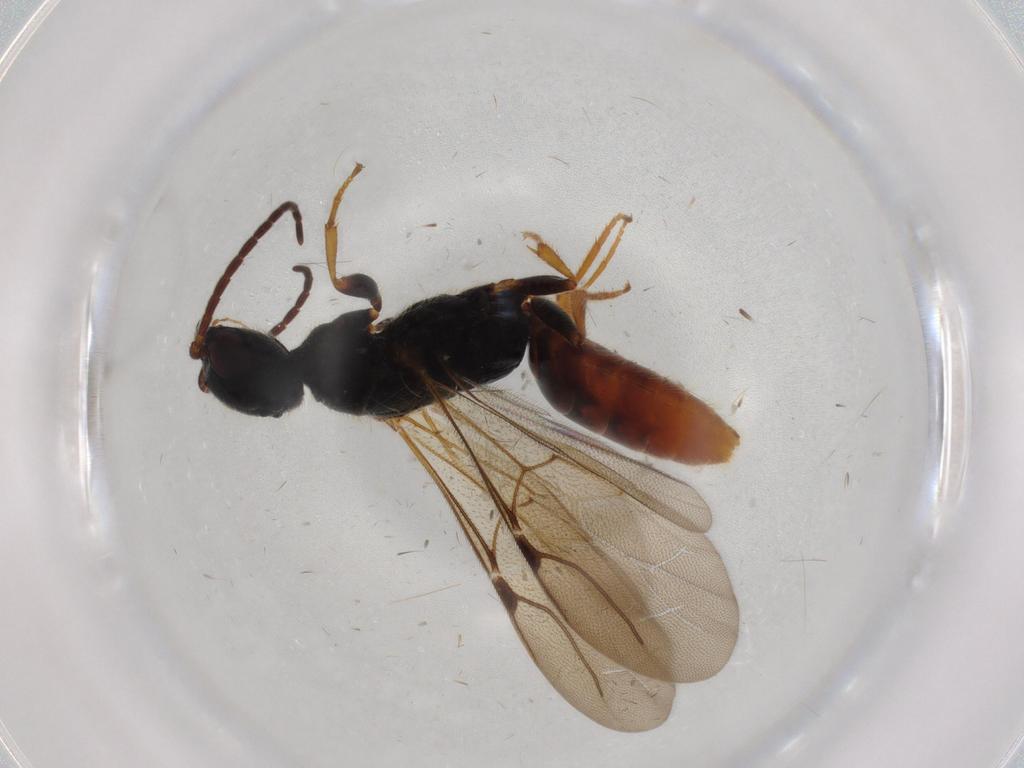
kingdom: Animalia
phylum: Arthropoda
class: Insecta
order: Hymenoptera
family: Bethylidae
